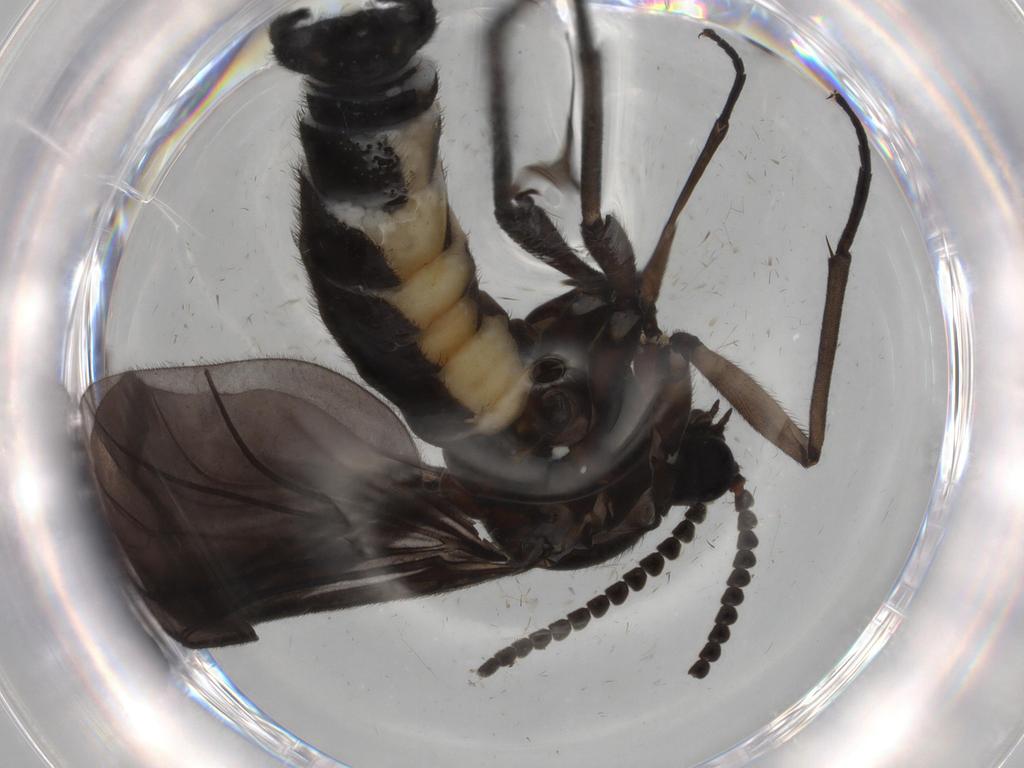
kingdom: Animalia
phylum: Arthropoda
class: Insecta
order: Diptera
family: Sciaridae
